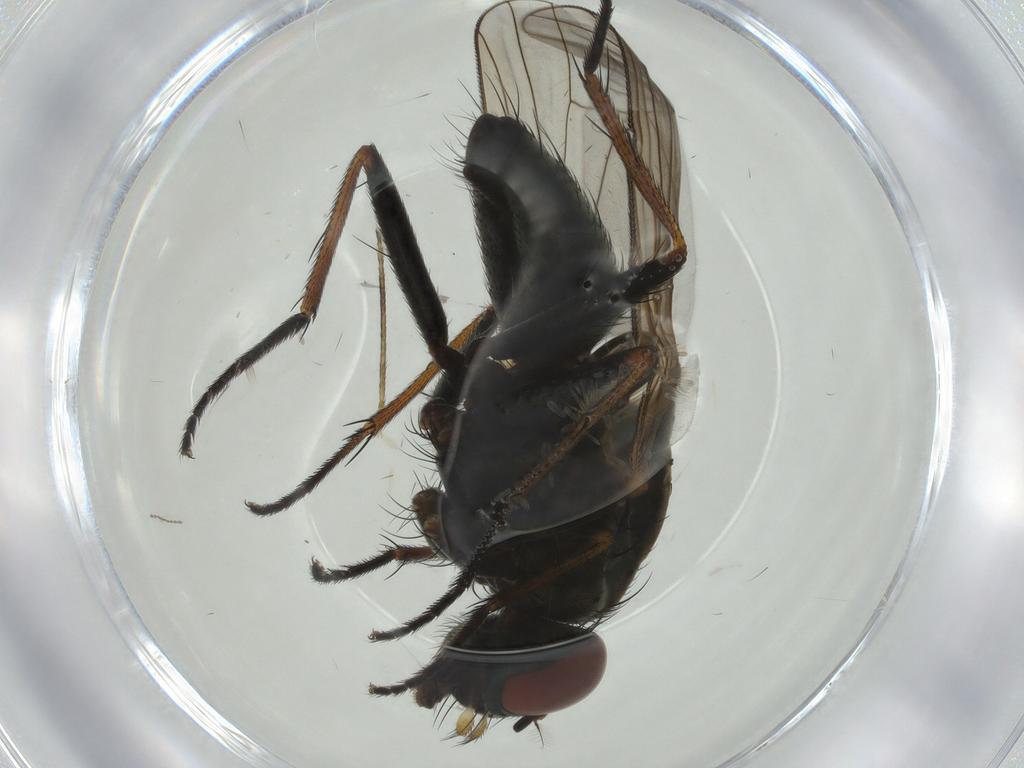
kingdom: Animalia
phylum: Arthropoda
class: Insecta
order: Diptera
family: Muscidae
